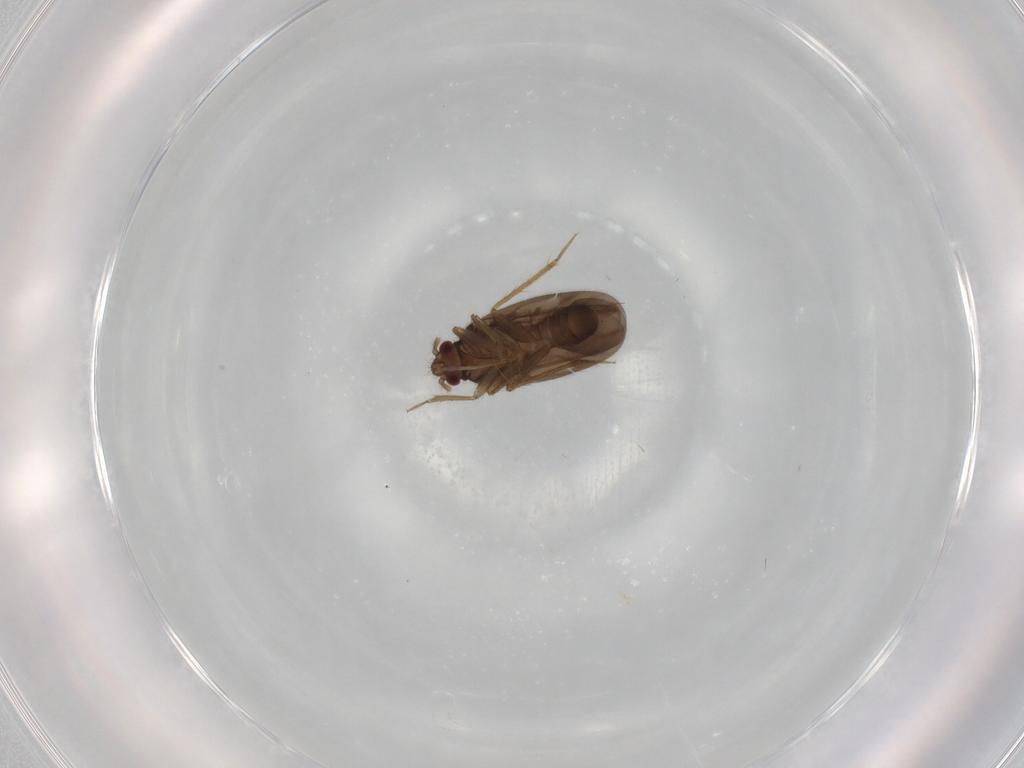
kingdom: Animalia
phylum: Arthropoda
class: Insecta
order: Hemiptera
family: Ceratocombidae
